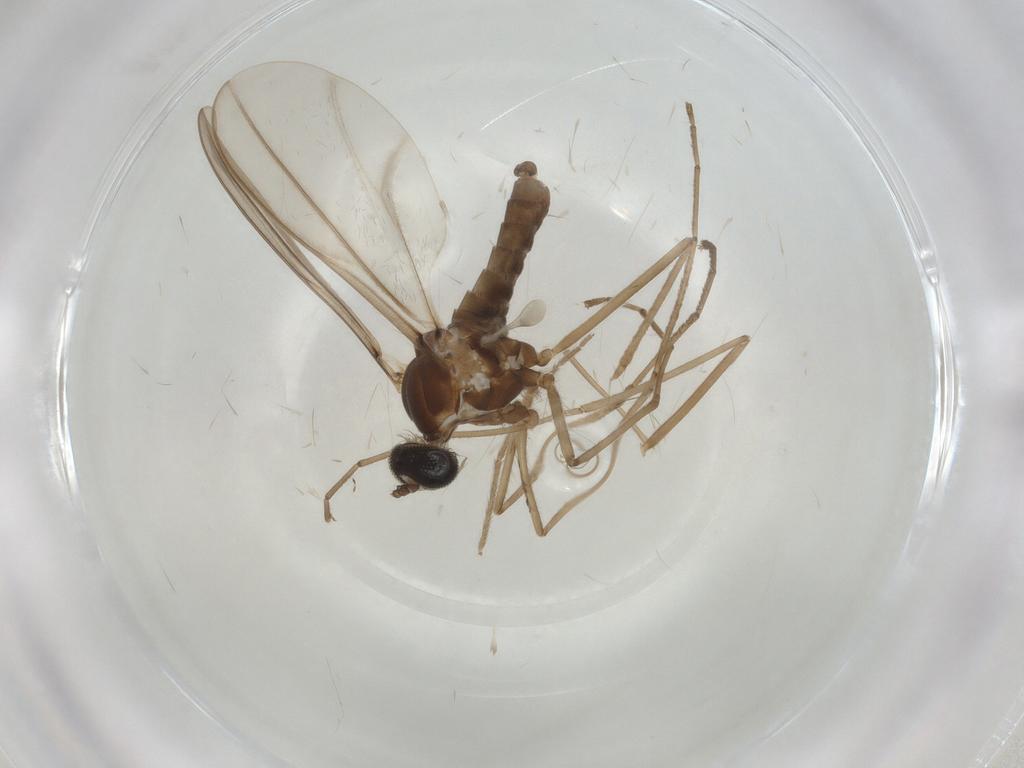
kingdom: Animalia
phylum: Arthropoda
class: Insecta
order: Diptera
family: Cecidomyiidae
